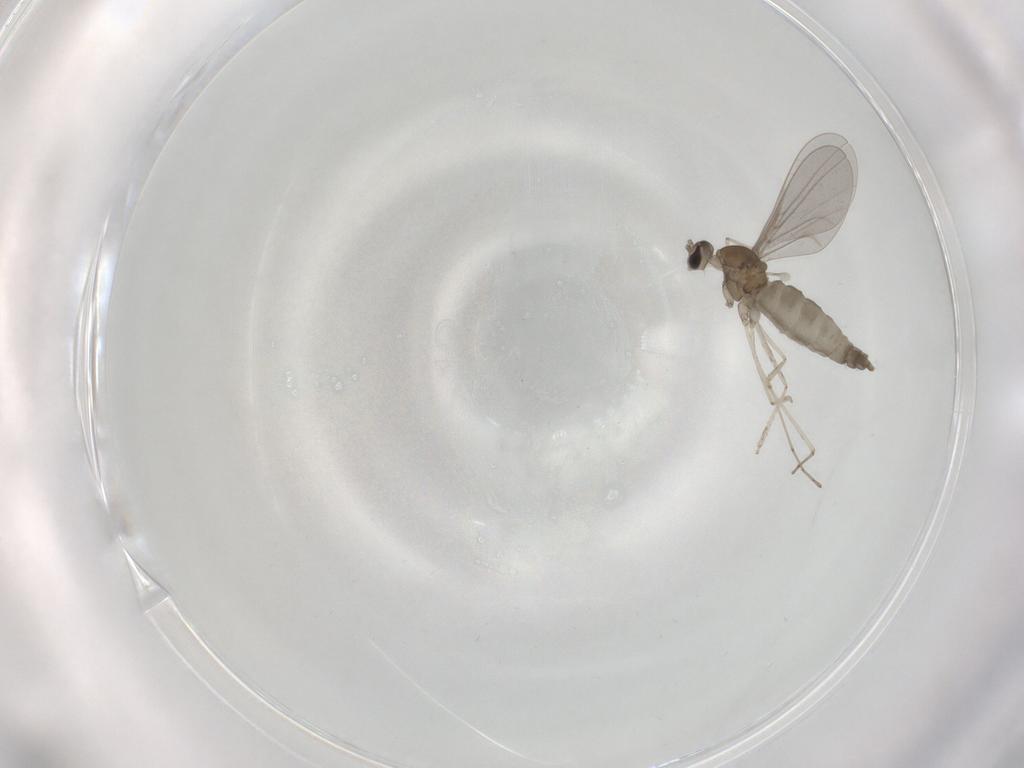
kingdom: Animalia
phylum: Arthropoda
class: Insecta
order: Diptera
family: Cecidomyiidae
